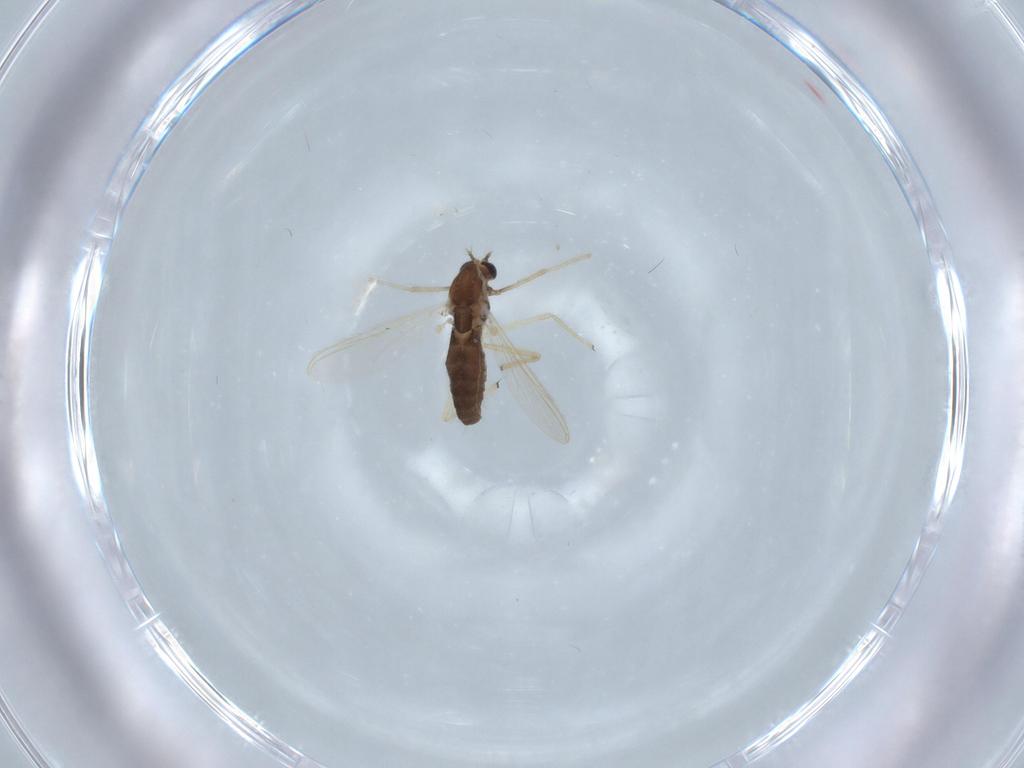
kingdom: Animalia
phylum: Arthropoda
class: Insecta
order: Diptera
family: Chironomidae
